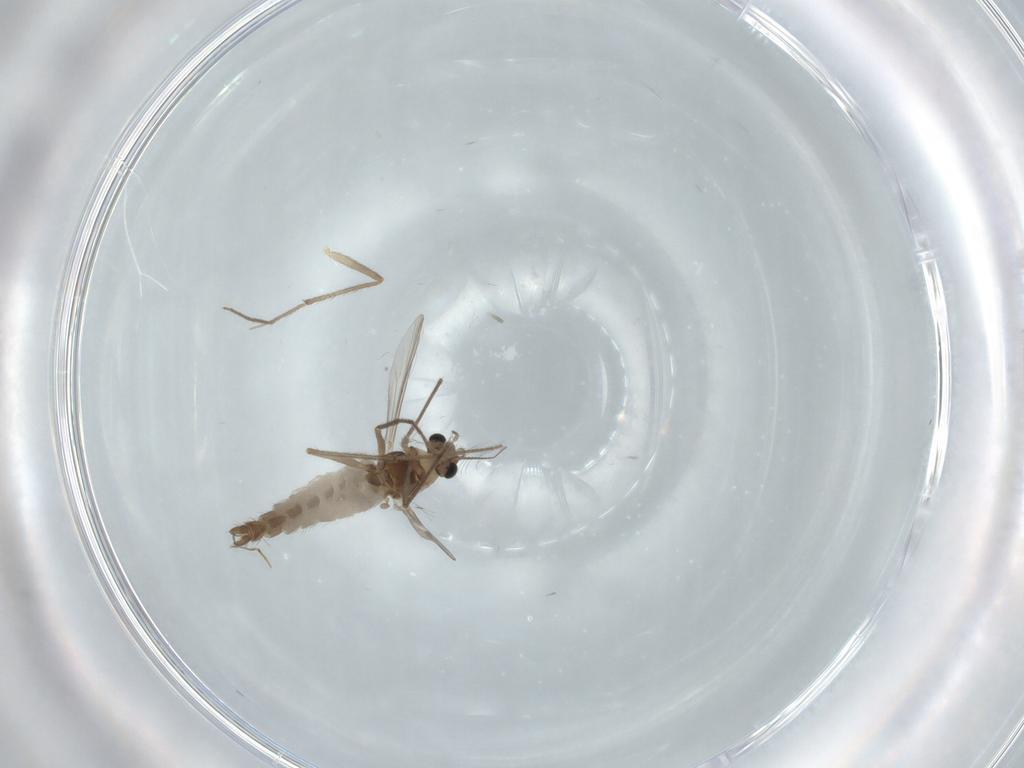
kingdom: Animalia
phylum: Arthropoda
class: Insecta
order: Diptera
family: Chironomidae
